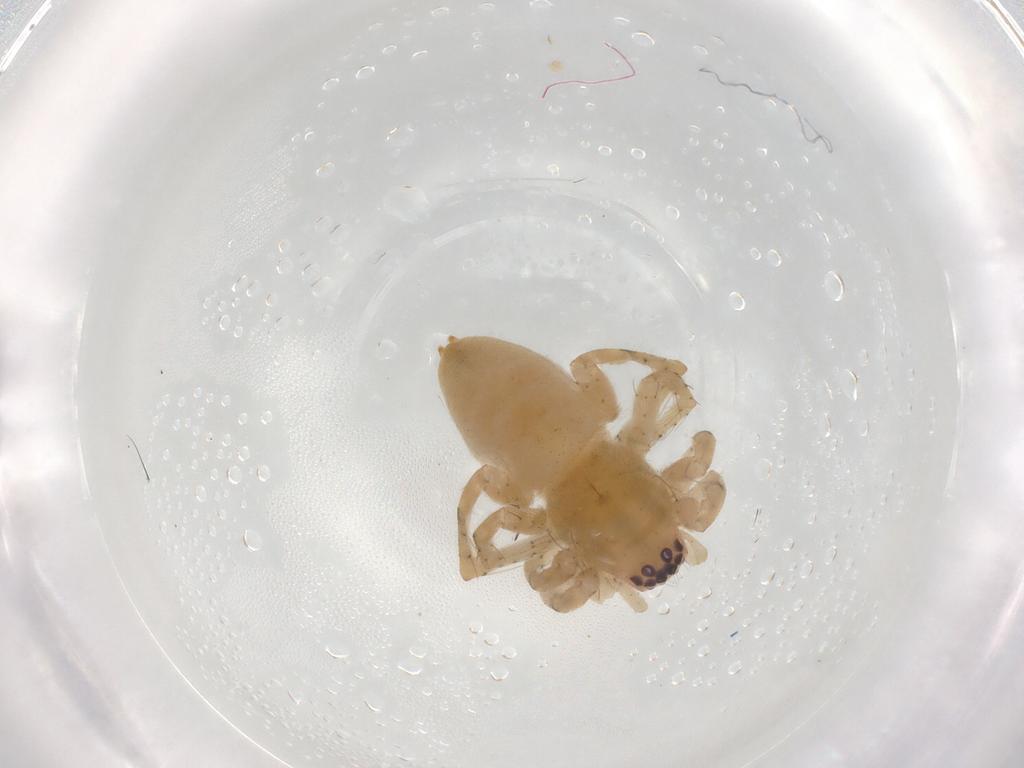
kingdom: Animalia
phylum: Arthropoda
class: Arachnida
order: Araneae
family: Clubionidae
